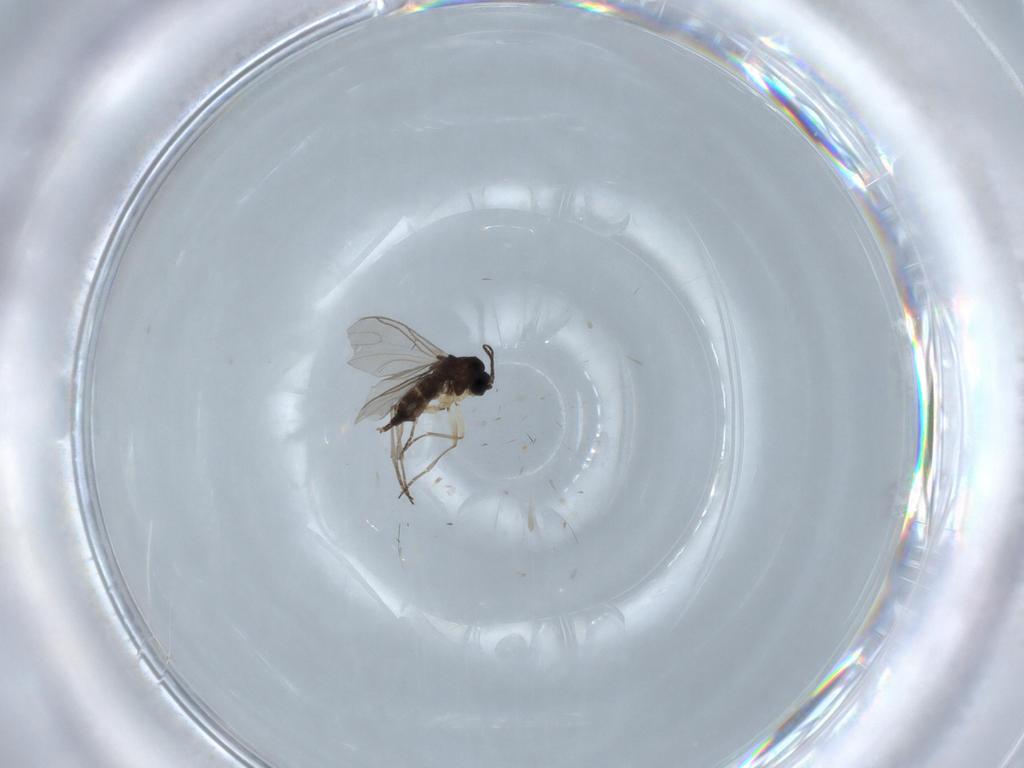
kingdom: Animalia
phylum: Arthropoda
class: Insecta
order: Diptera
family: Sciaridae
